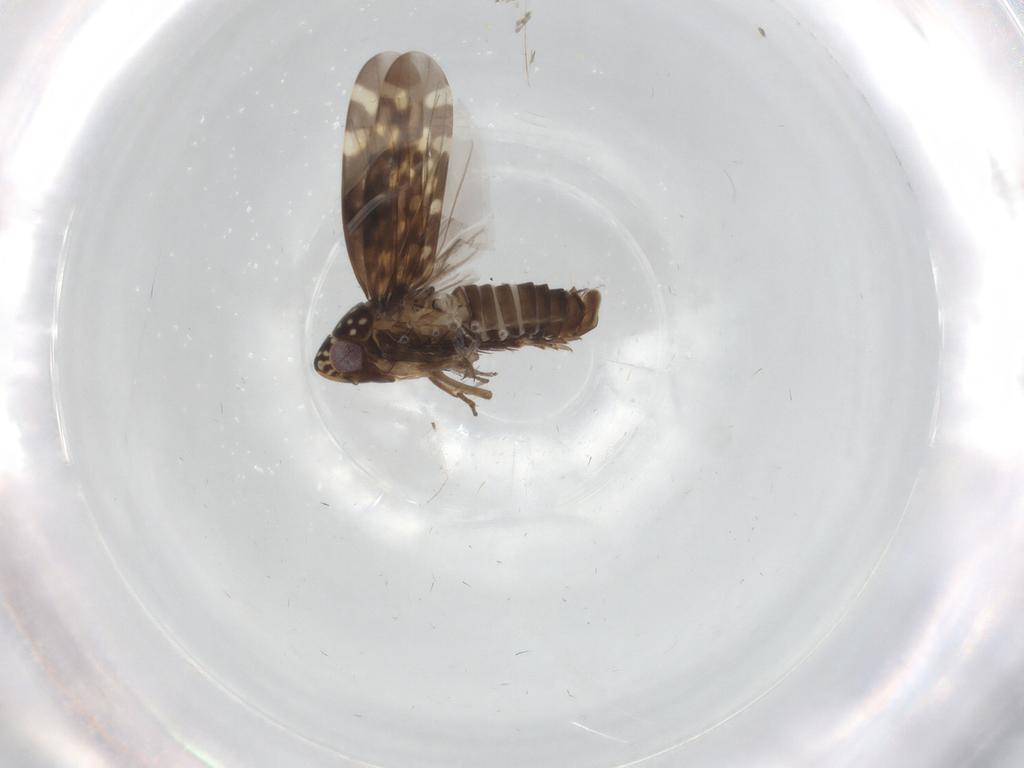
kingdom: Animalia
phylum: Arthropoda
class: Insecta
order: Hemiptera
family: Cicadellidae
